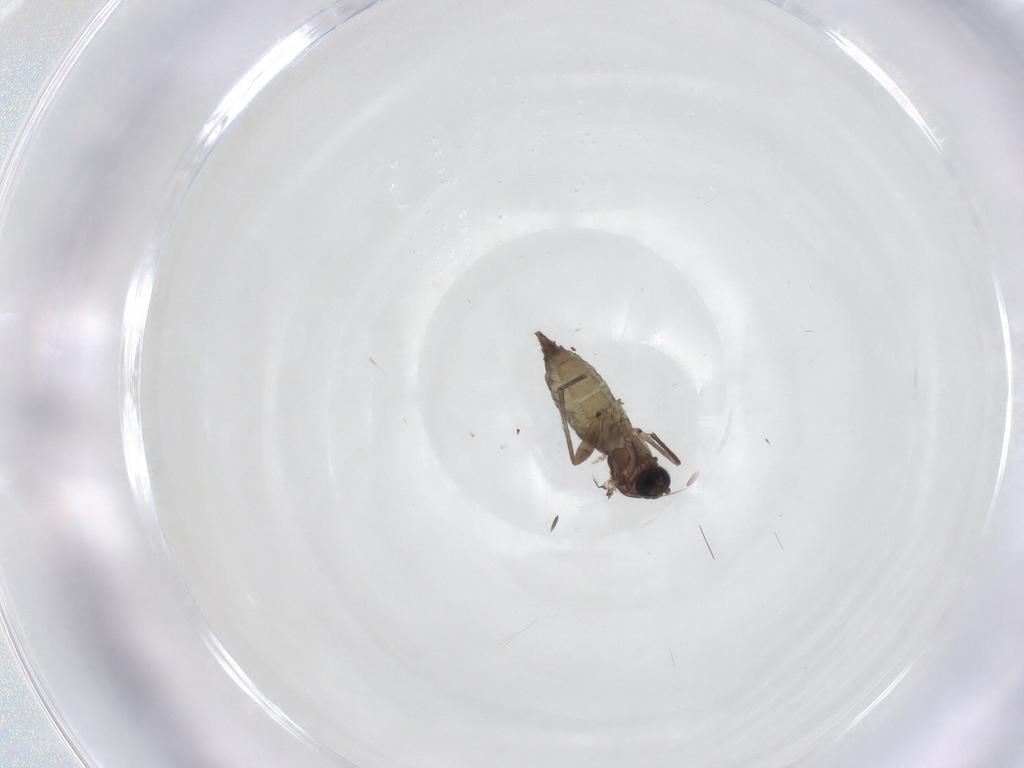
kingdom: Animalia
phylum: Arthropoda
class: Insecta
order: Diptera
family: Sciaridae
